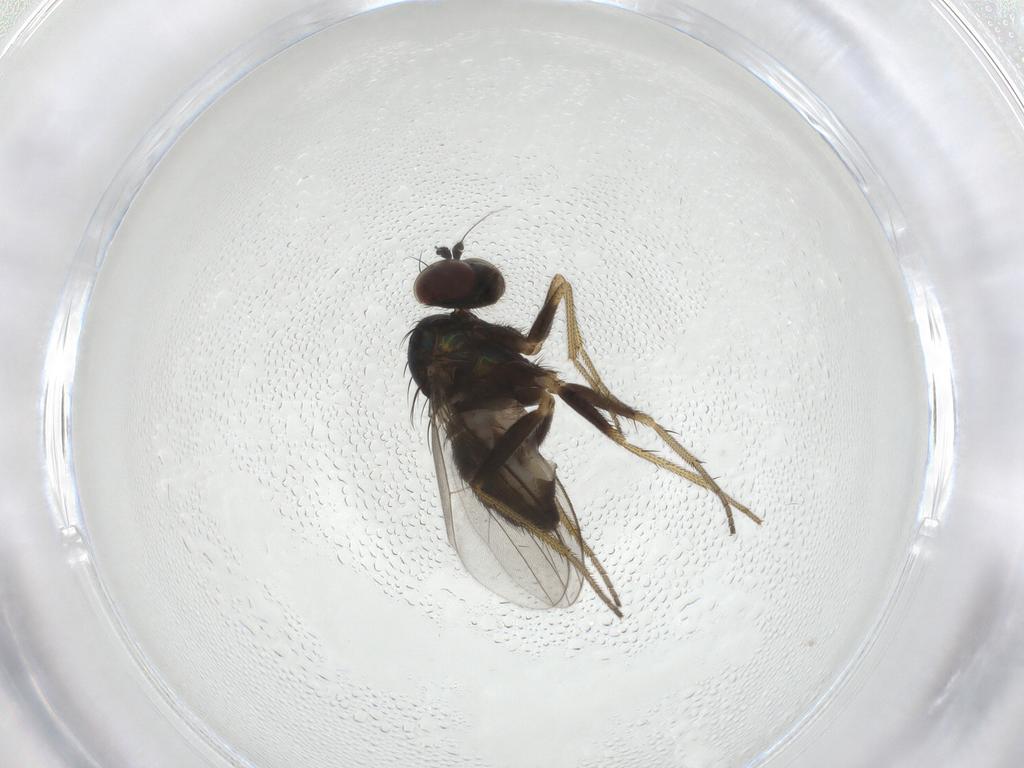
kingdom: Animalia
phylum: Arthropoda
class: Insecta
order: Diptera
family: Dolichopodidae
